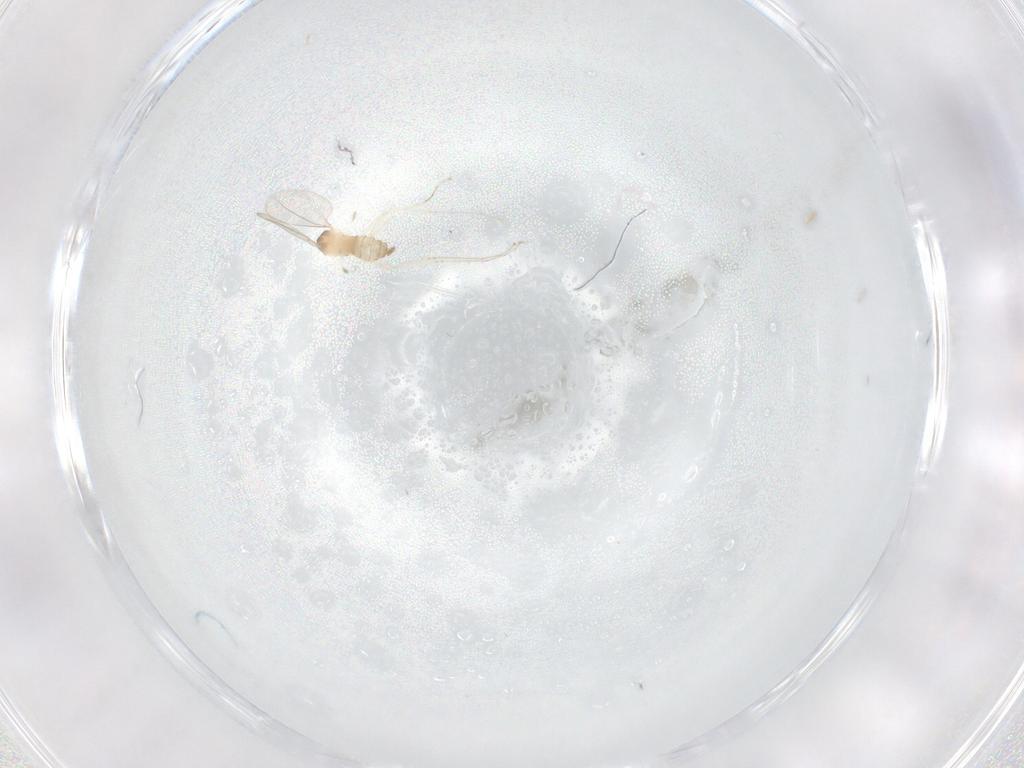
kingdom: Animalia
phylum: Arthropoda
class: Insecta
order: Diptera
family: Cecidomyiidae
